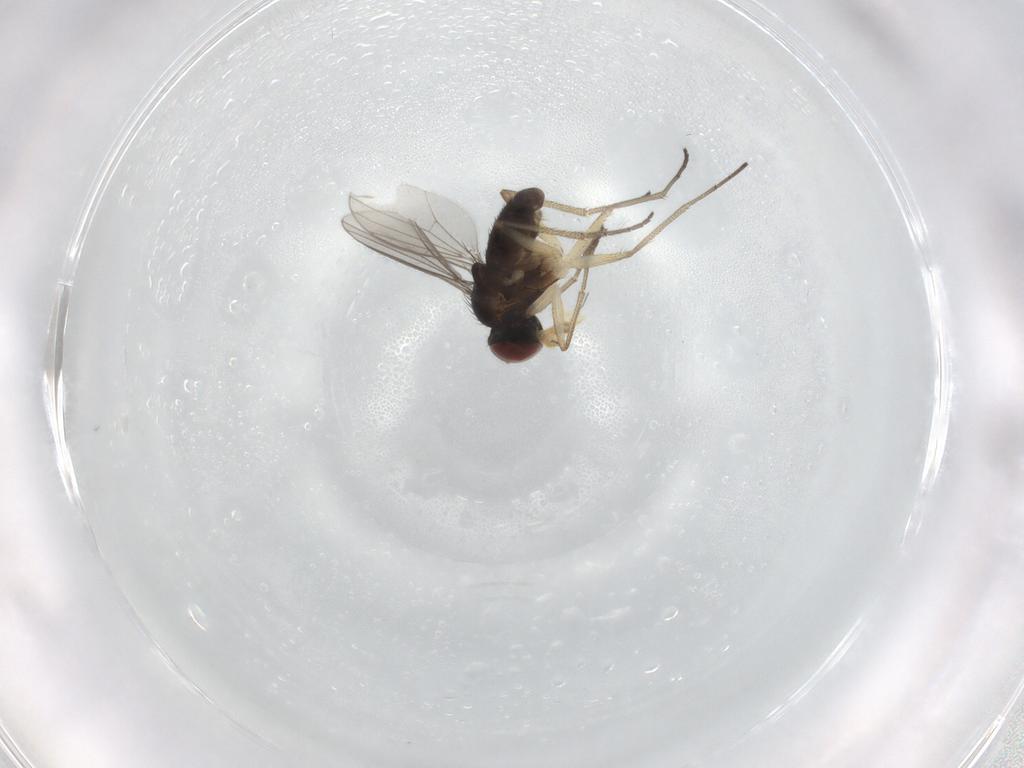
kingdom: Animalia
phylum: Arthropoda
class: Insecta
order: Diptera
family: Dolichopodidae
